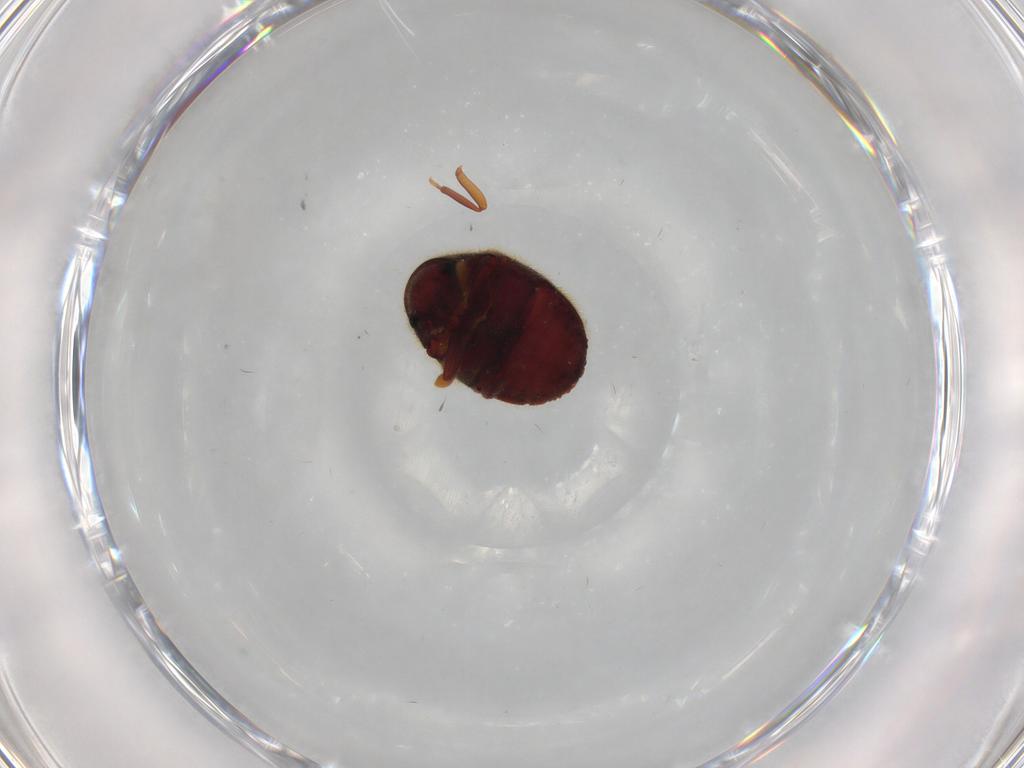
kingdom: Animalia
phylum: Arthropoda
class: Insecta
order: Coleoptera
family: Ptinidae
